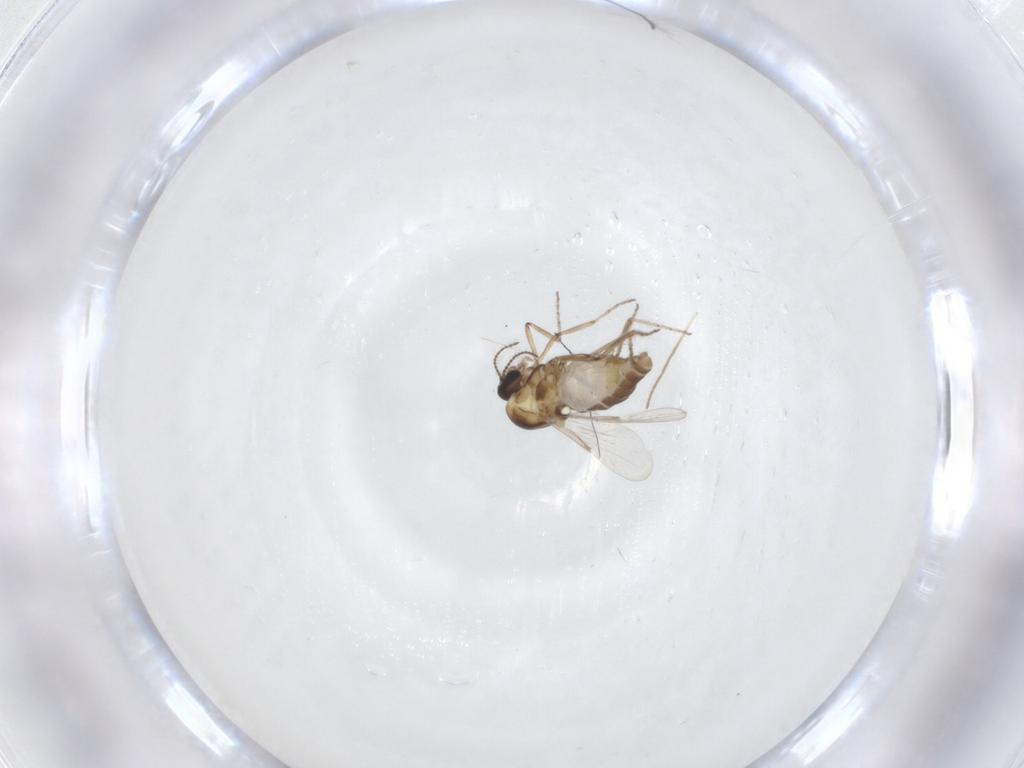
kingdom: Animalia
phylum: Arthropoda
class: Insecta
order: Diptera
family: Ceratopogonidae
